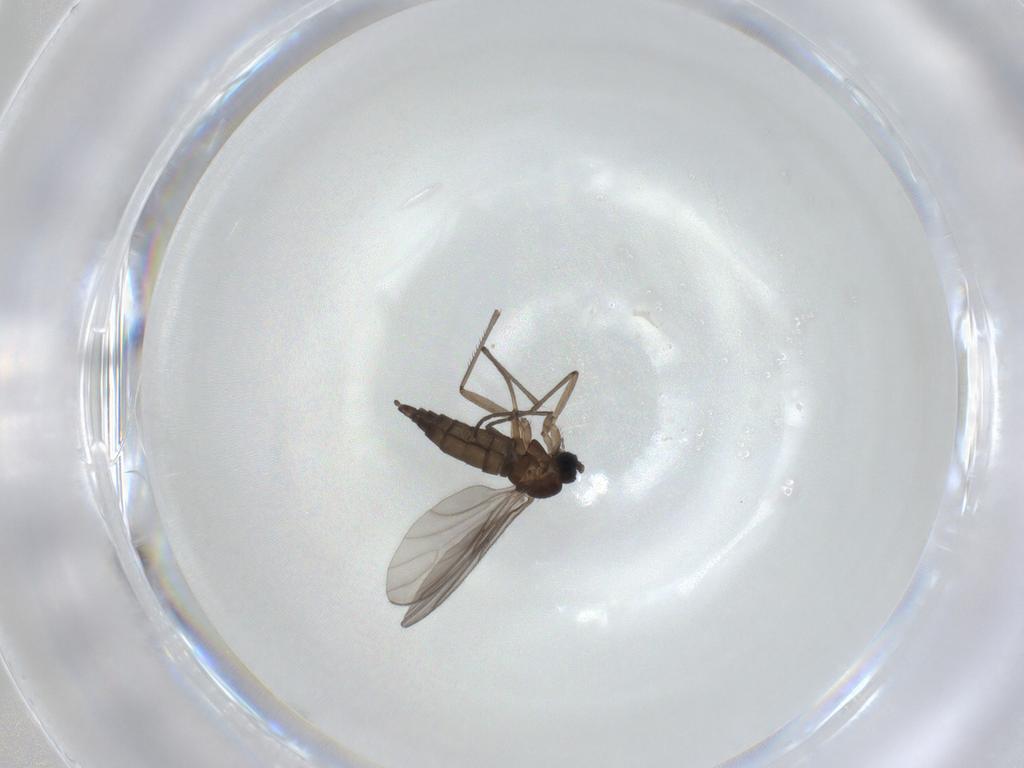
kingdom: Animalia
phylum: Arthropoda
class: Insecta
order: Diptera
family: Sciaridae
